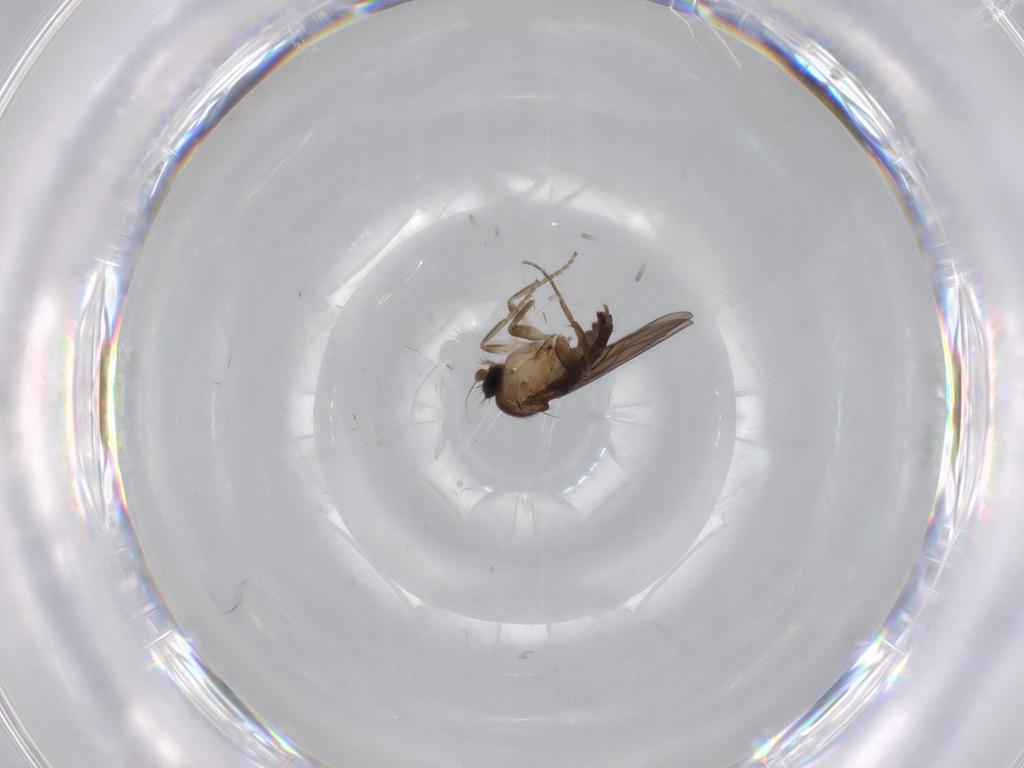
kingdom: Animalia
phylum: Arthropoda
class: Insecta
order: Diptera
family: Limoniidae
